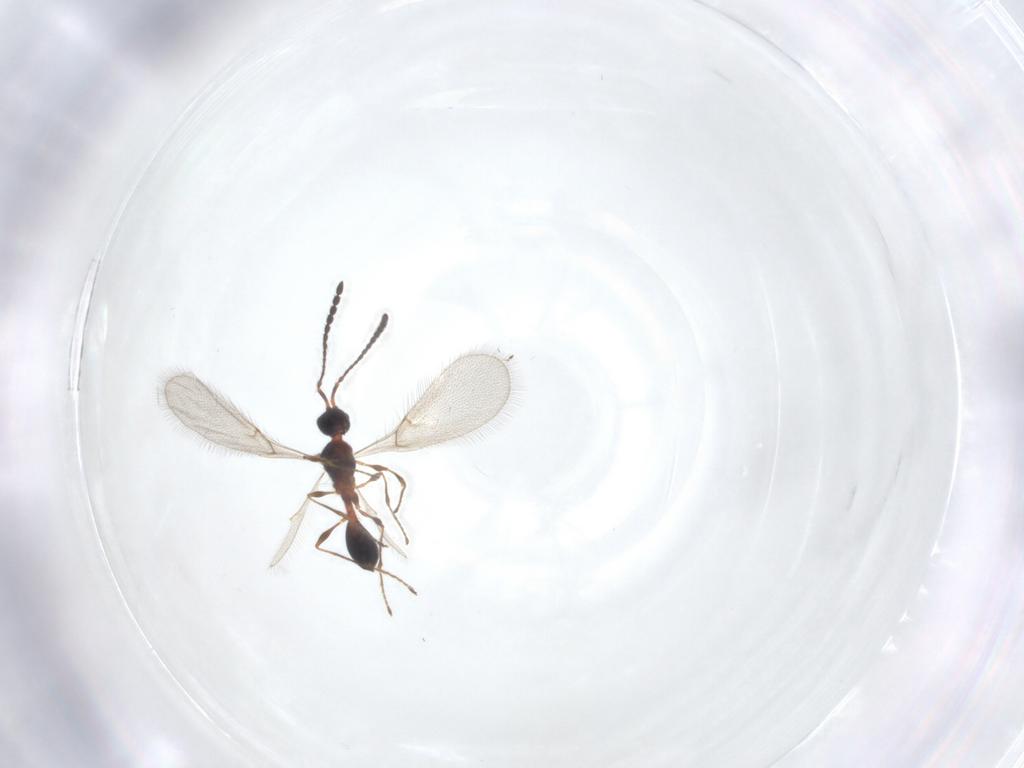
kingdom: Animalia
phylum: Arthropoda
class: Insecta
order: Hymenoptera
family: Diapriidae
